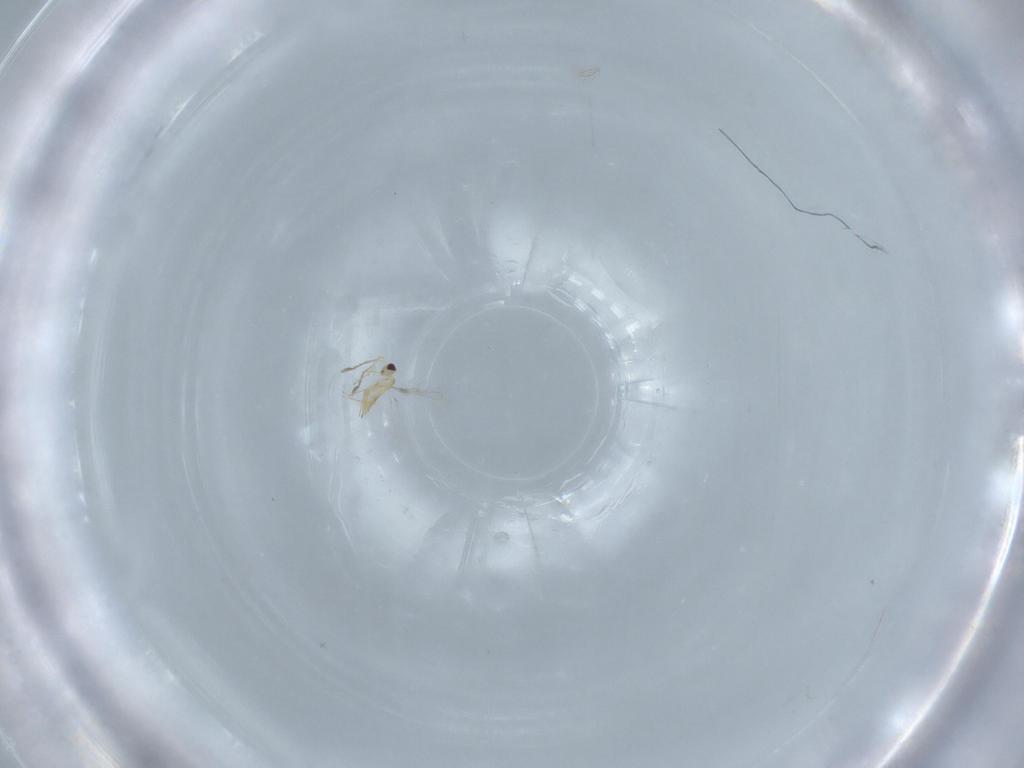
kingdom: Animalia
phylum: Arthropoda
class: Insecta
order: Hymenoptera
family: Mymaridae
